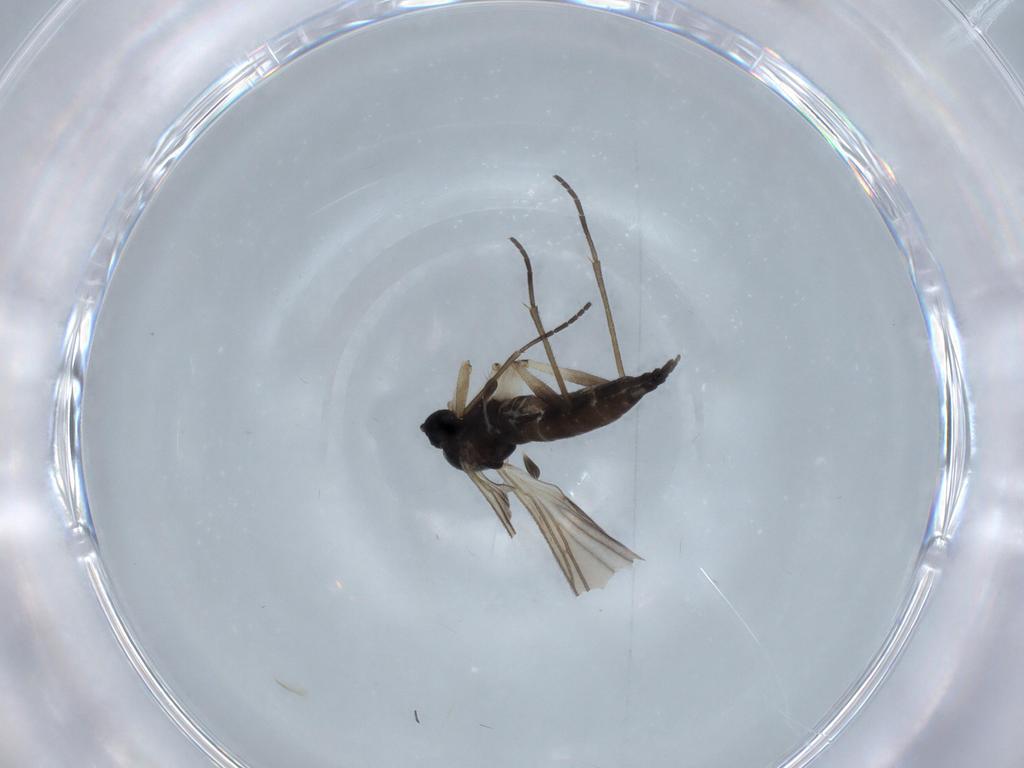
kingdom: Animalia
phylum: Arthropoda
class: Insecta
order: Diptera
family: Sciaridae
